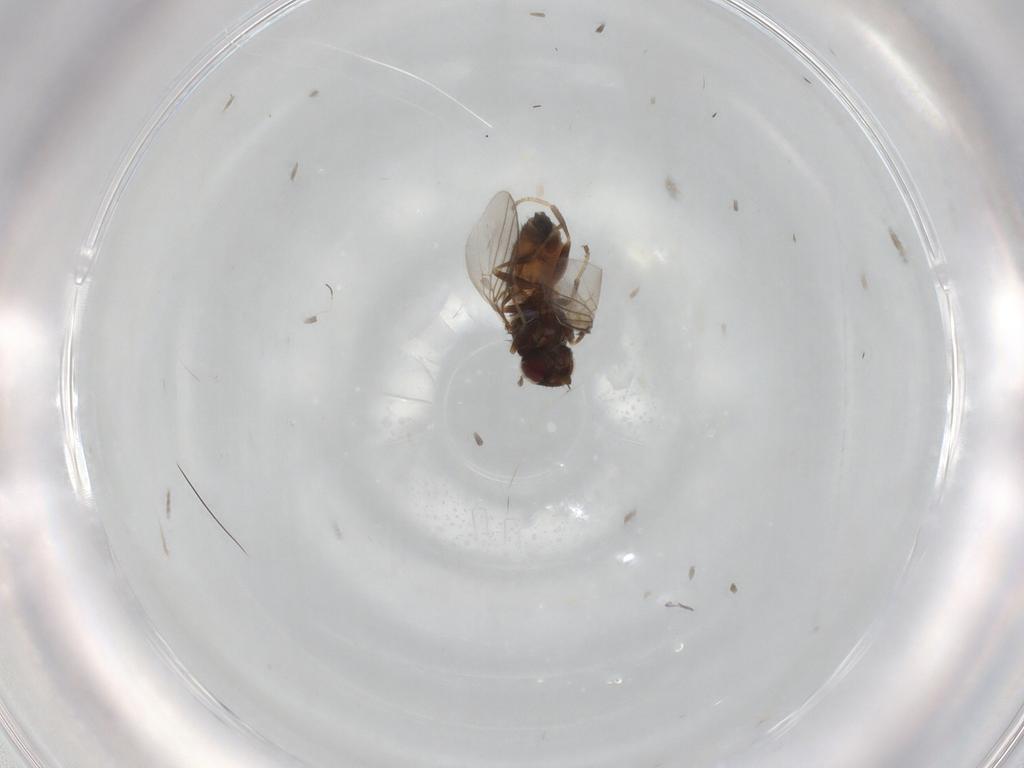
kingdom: Animalia
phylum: Arthropoda
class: Insecta
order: Diptera
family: Chloropidae
